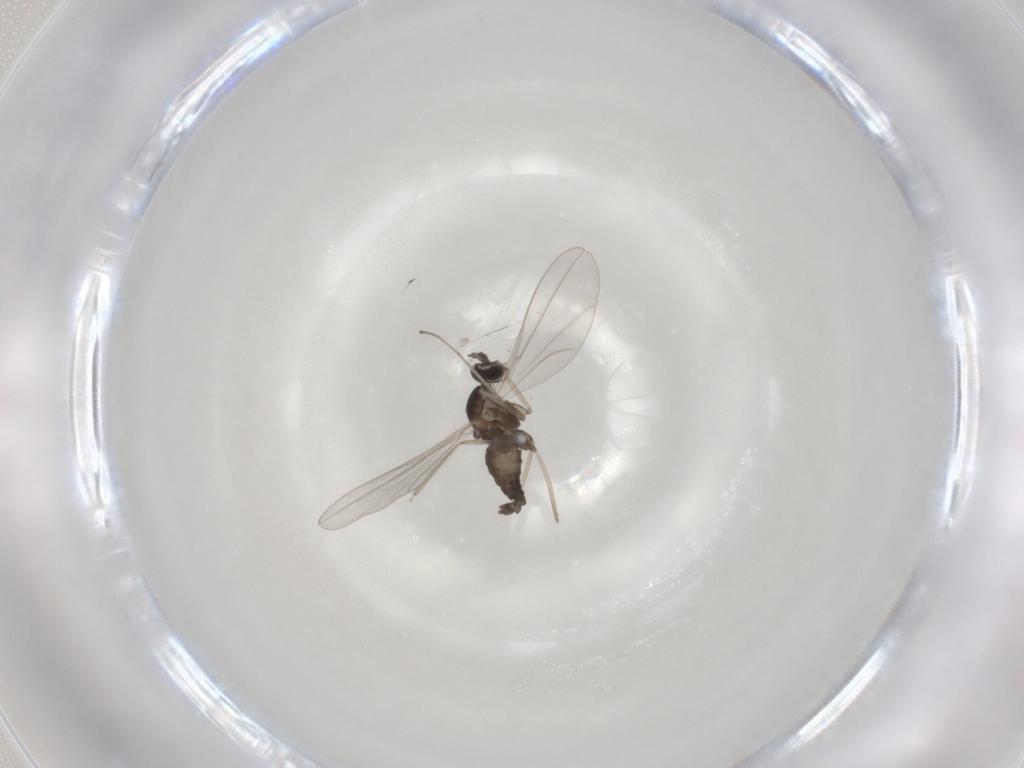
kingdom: Animalia
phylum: Arthropoda
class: Insecta
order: Diptera
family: Cecidomyiidae
